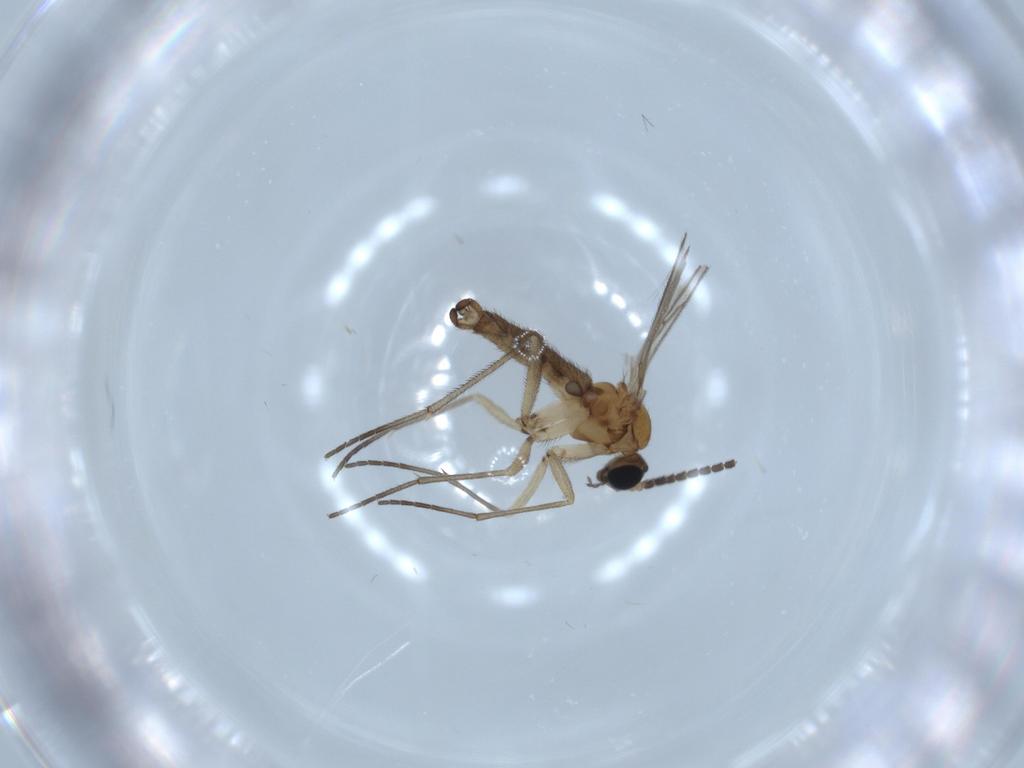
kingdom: Animalia
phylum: Arthropoda
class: Insecta
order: Diptera
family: Sciaridae
